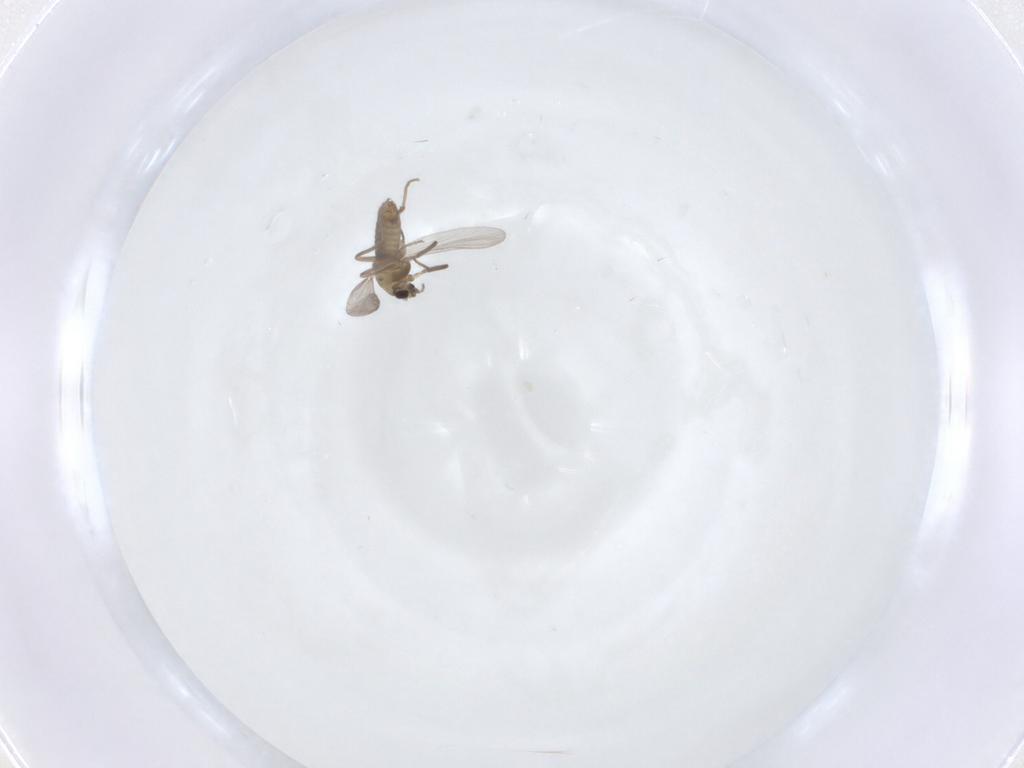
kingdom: Animalia
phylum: Arthropoda
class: Insecta
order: Diptera
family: Chironomidae
